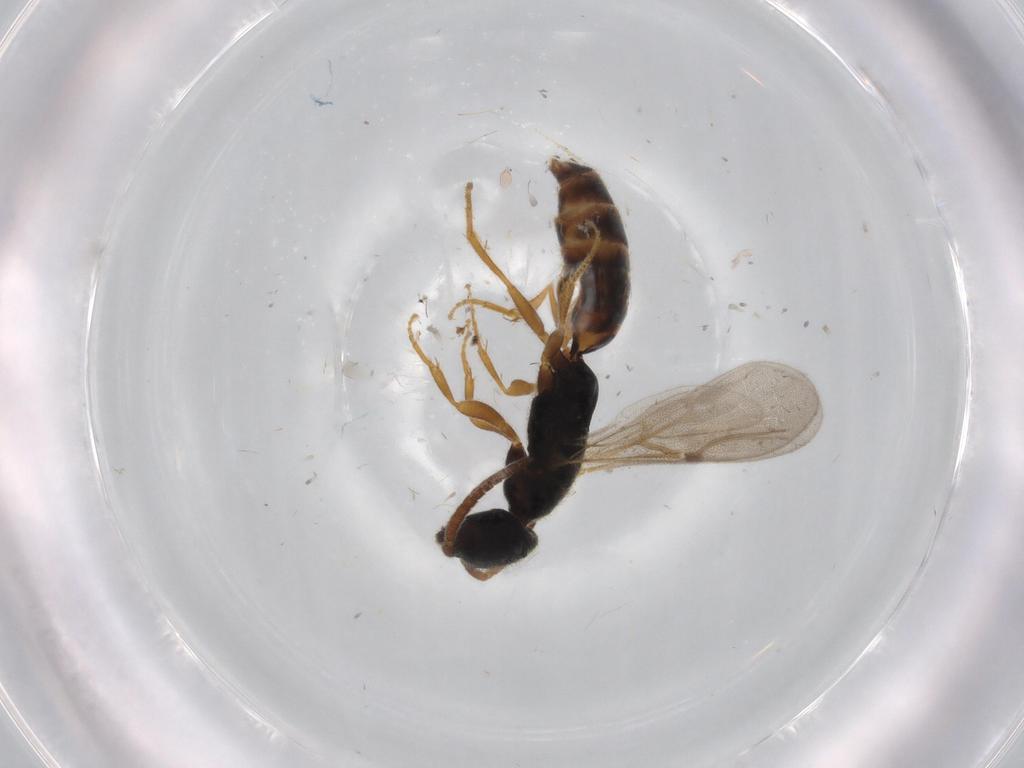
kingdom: Animalia
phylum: Arthropoda
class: Insecta
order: Hymenoptera
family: Bethylidae
